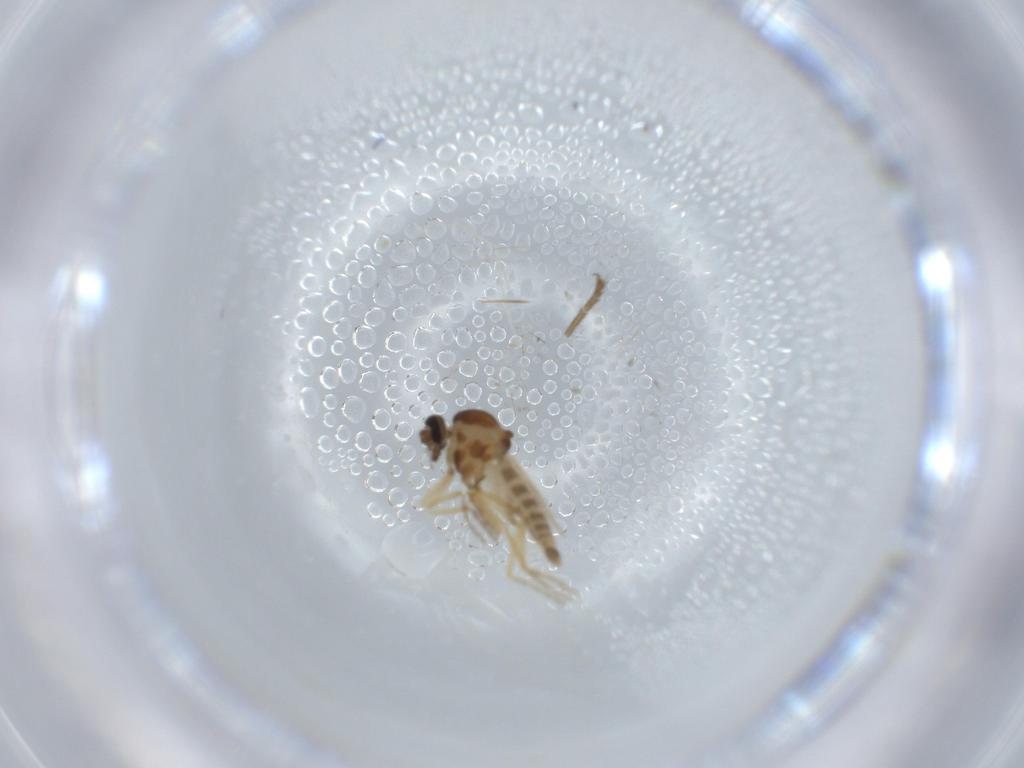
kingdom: Animalia
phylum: Arthropoda
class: Insecta
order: Diptera
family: Ceratopogonidae
